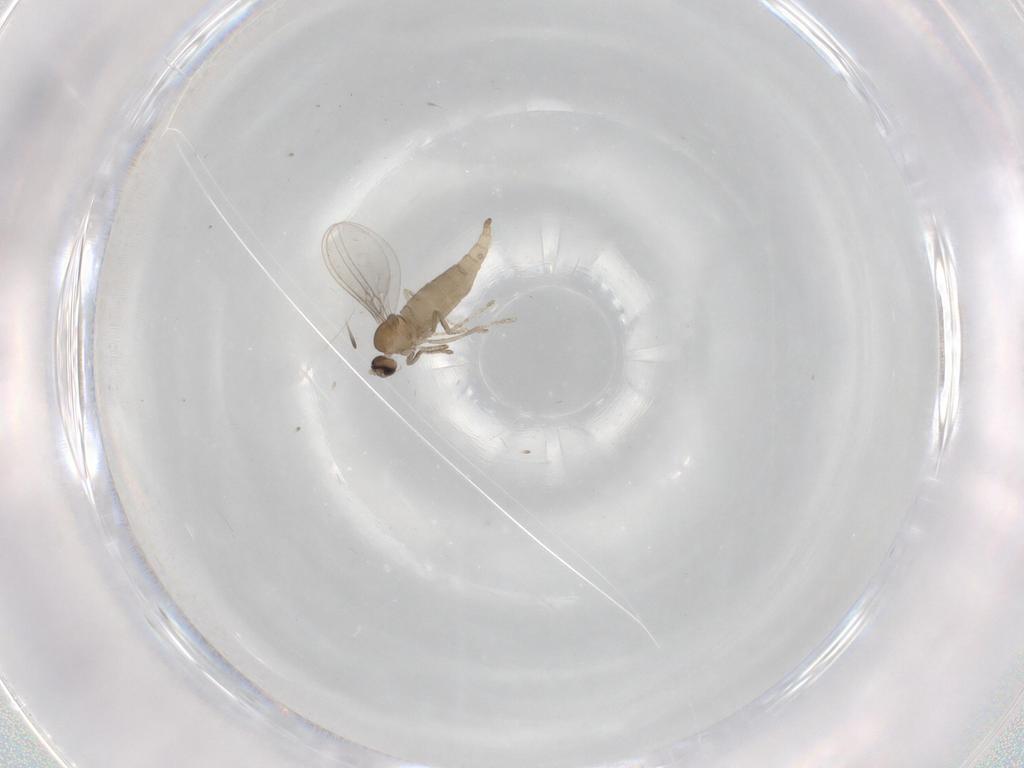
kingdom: Animalia
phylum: Arthropoda
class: Insecta
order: Diptera
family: Cecidomyiidae
